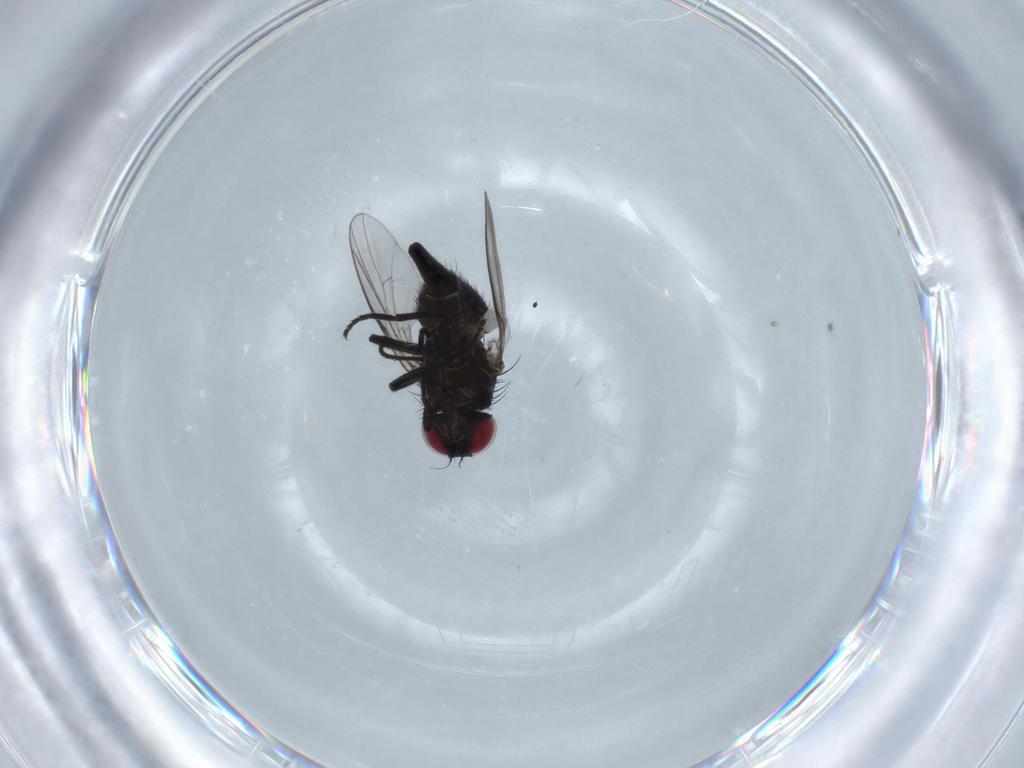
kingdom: Animalia
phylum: Arthropoda
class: Insecta
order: Diptera
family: Agromyzidae
